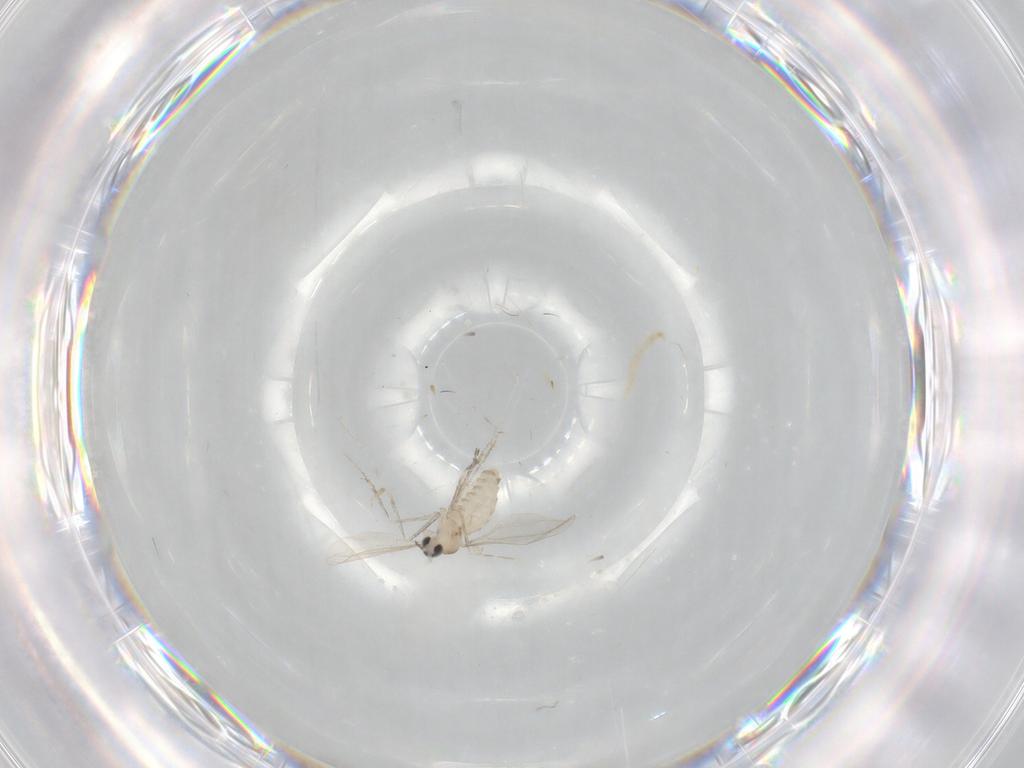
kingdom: Animalia
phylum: Arthropoda
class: Insecta
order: Diptera
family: Cecidomyiidae
